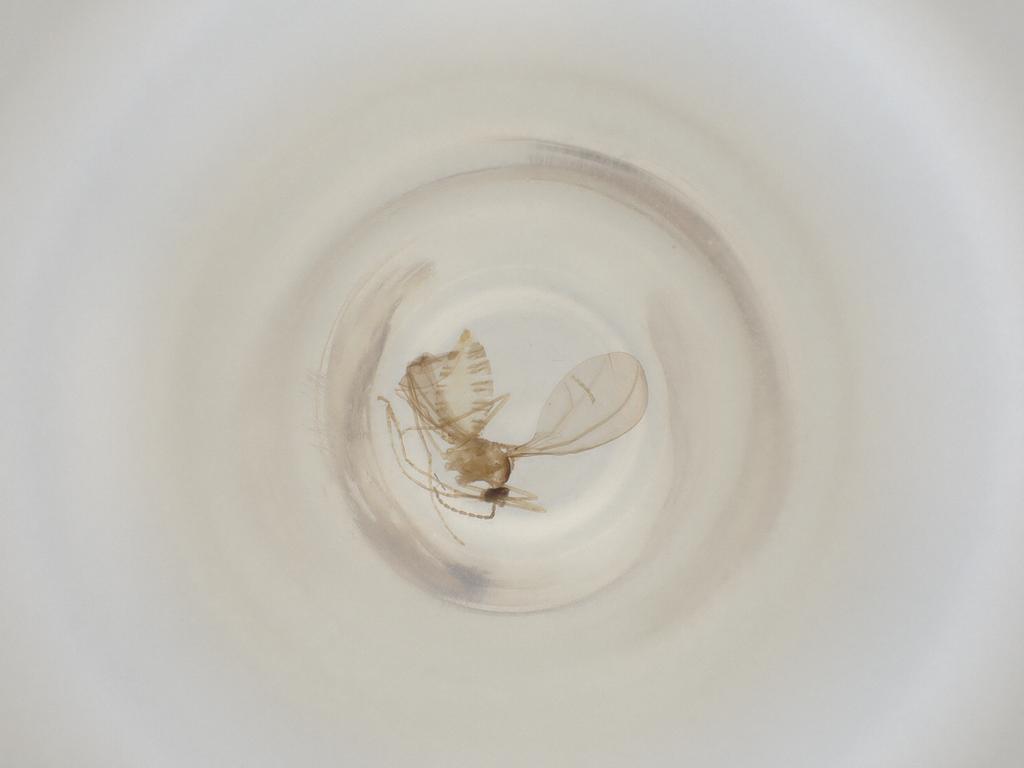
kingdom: Animalia
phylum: Arthropoda
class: Insecta
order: Diptera
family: Cecidomyiidae
